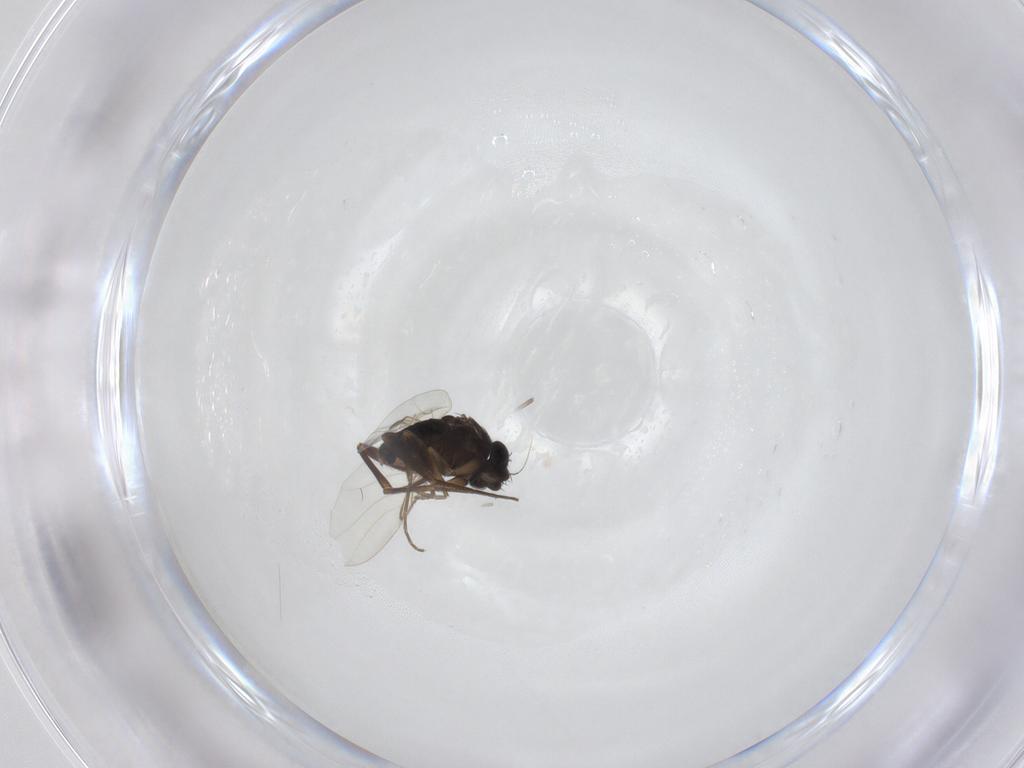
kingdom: Animalia
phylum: Arthropoda
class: Insecta
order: Diptera
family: Phoridae
